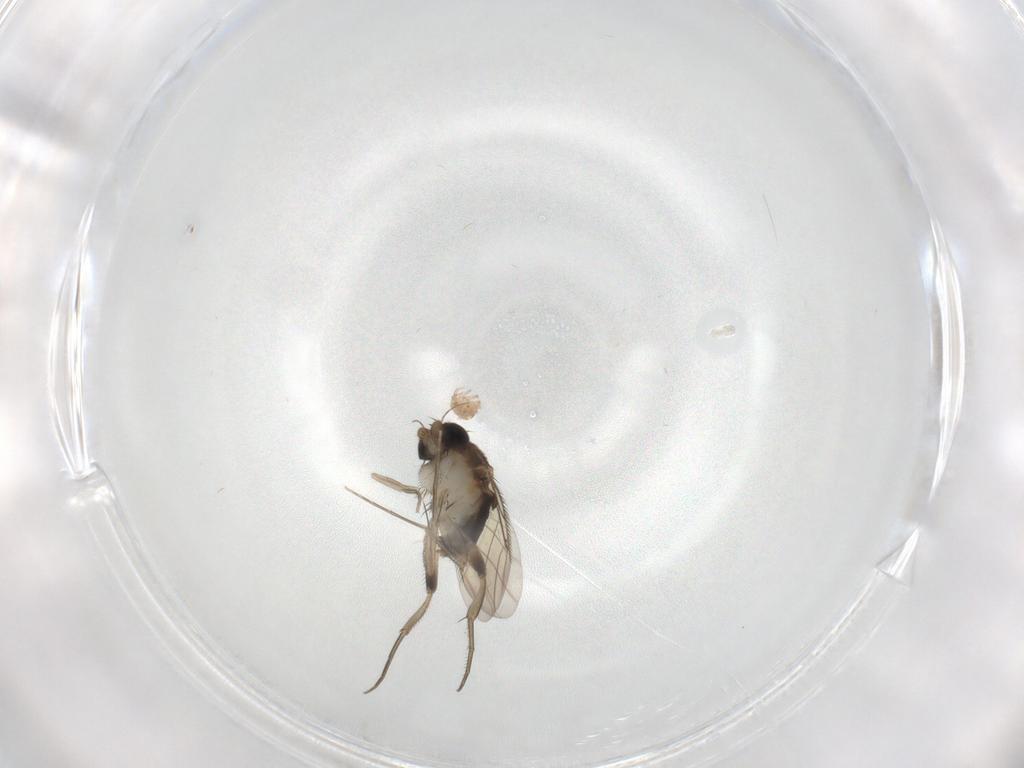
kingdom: Animalia
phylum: Arthropoda
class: Insecta
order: Diptera
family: Phoridae
